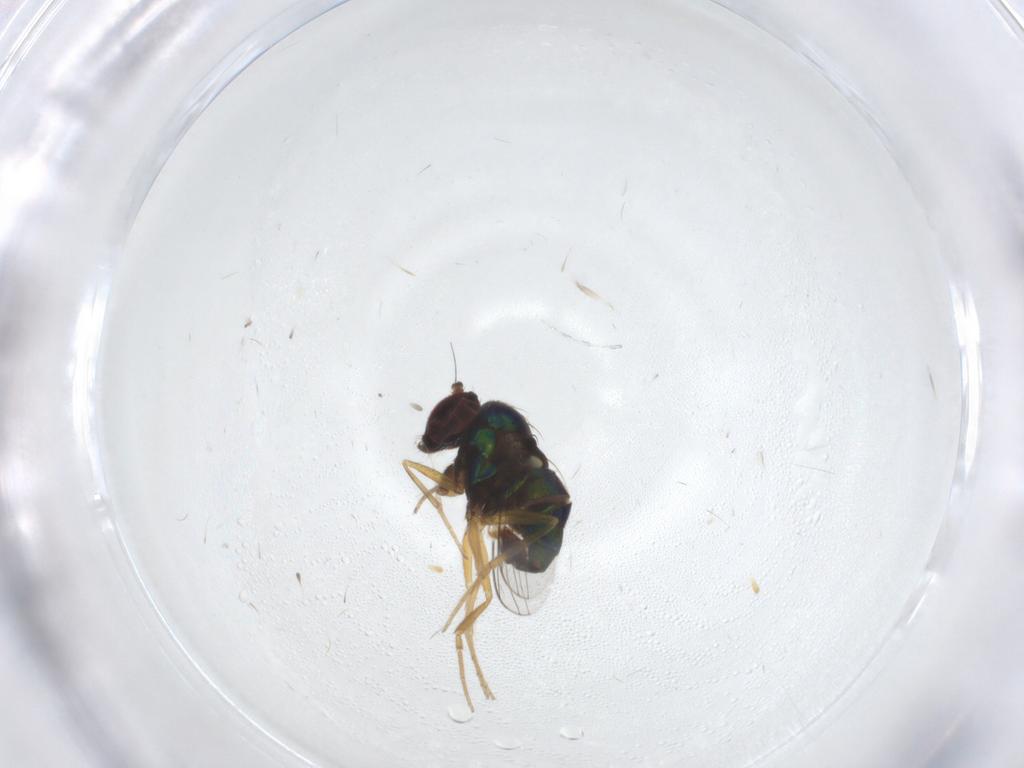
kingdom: Animalia
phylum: Arthropoda
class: Insecta
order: Diptera
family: Dolichopodidae
